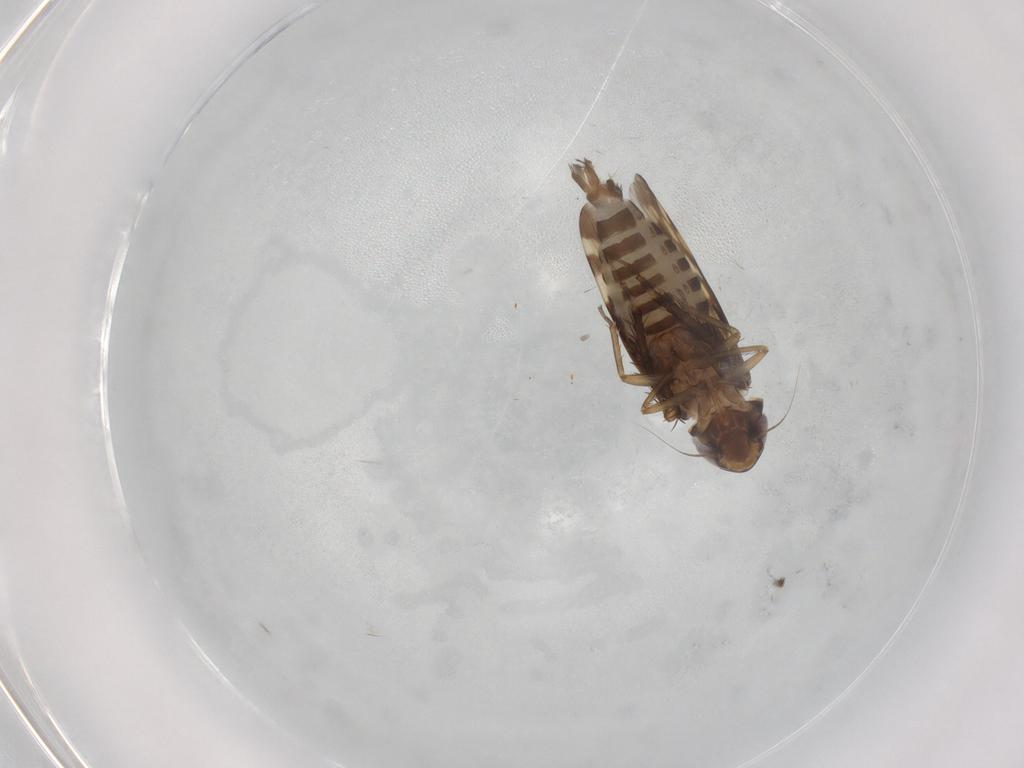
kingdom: Animalia
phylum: Arthropoda
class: Insecta
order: Hemiptera
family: Cicadellidae
